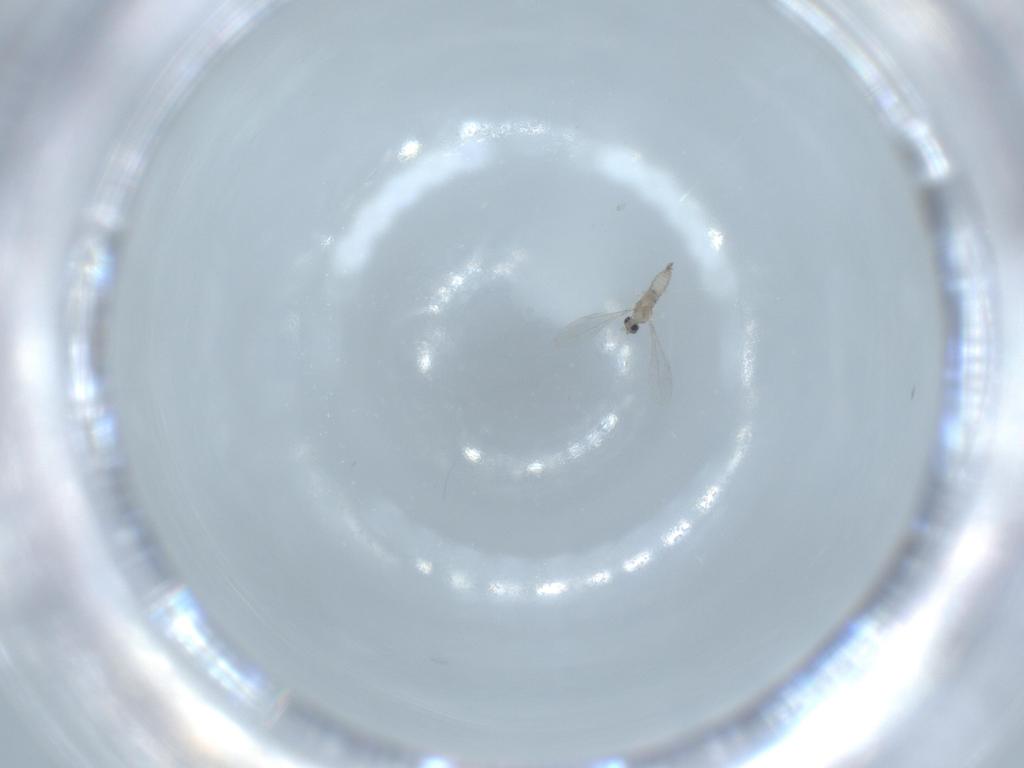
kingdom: Animalia
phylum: Arthropoda
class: Insecta
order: Diptera
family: Cecidomyiidae
